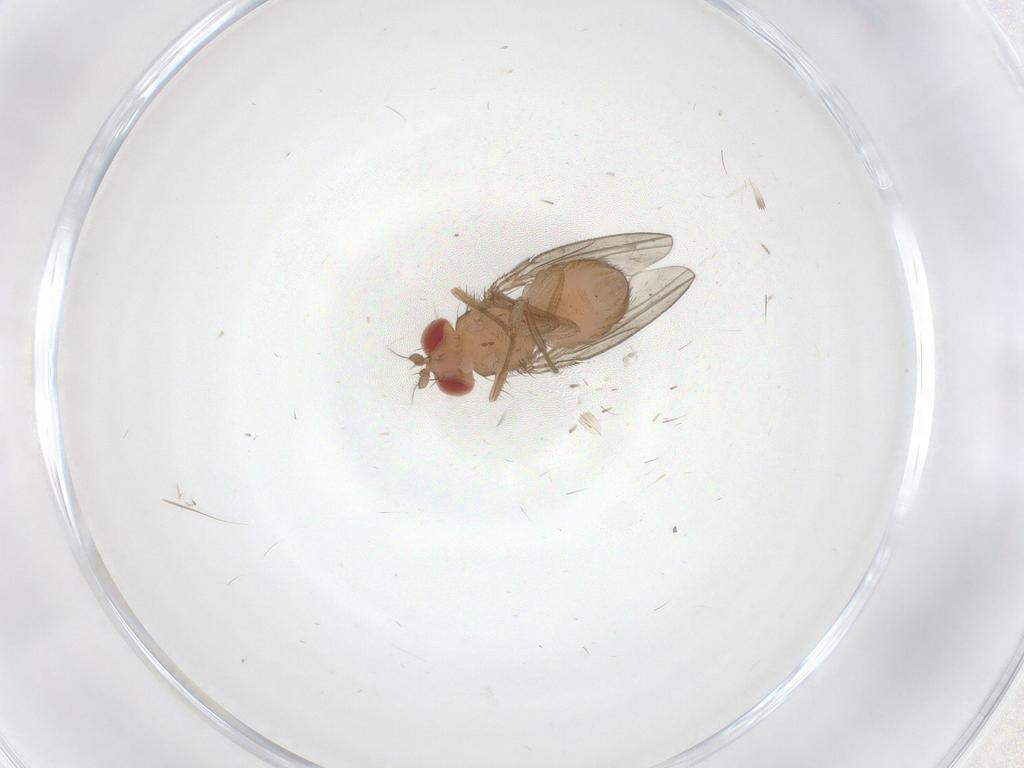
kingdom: Animalia
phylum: Arthropoda
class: Insecta
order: Diptera
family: Drosophilidae
